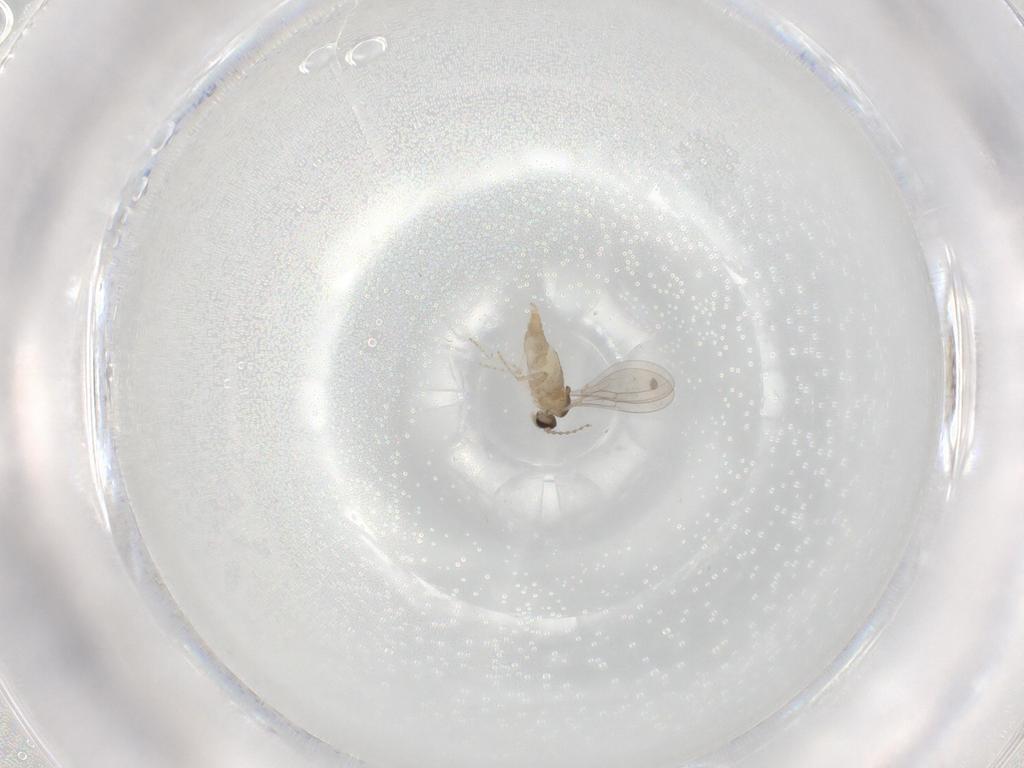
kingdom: Animalia
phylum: Arthropoda
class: Insecta
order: Diptera
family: Cecidomyiidae
